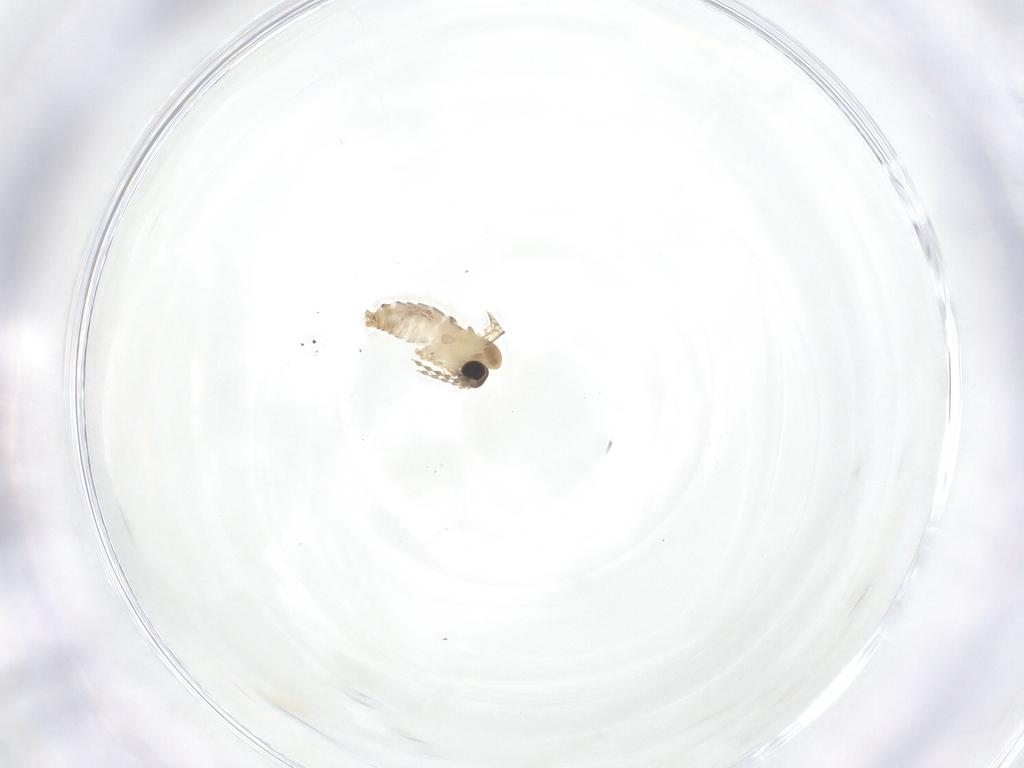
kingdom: Animalia
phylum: Arthropoda
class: Insecta
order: Diptera
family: Psychodidae
